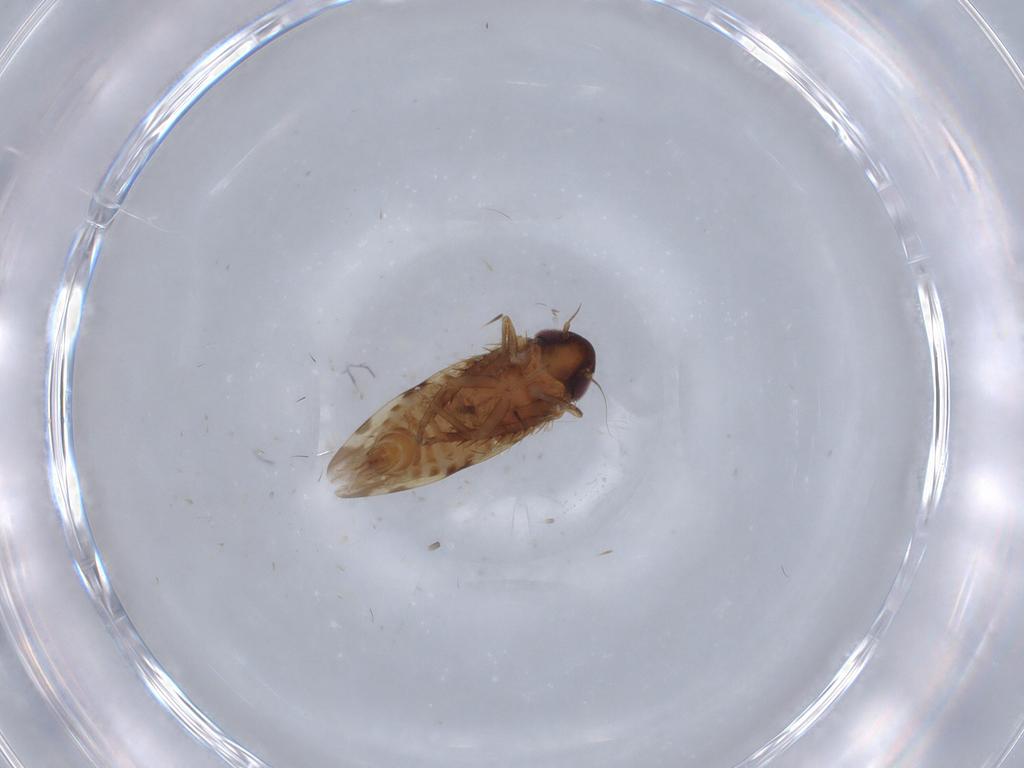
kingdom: Animalia
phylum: Arthropoda
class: Insecta
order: Hemiptera
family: Cicadellidae
